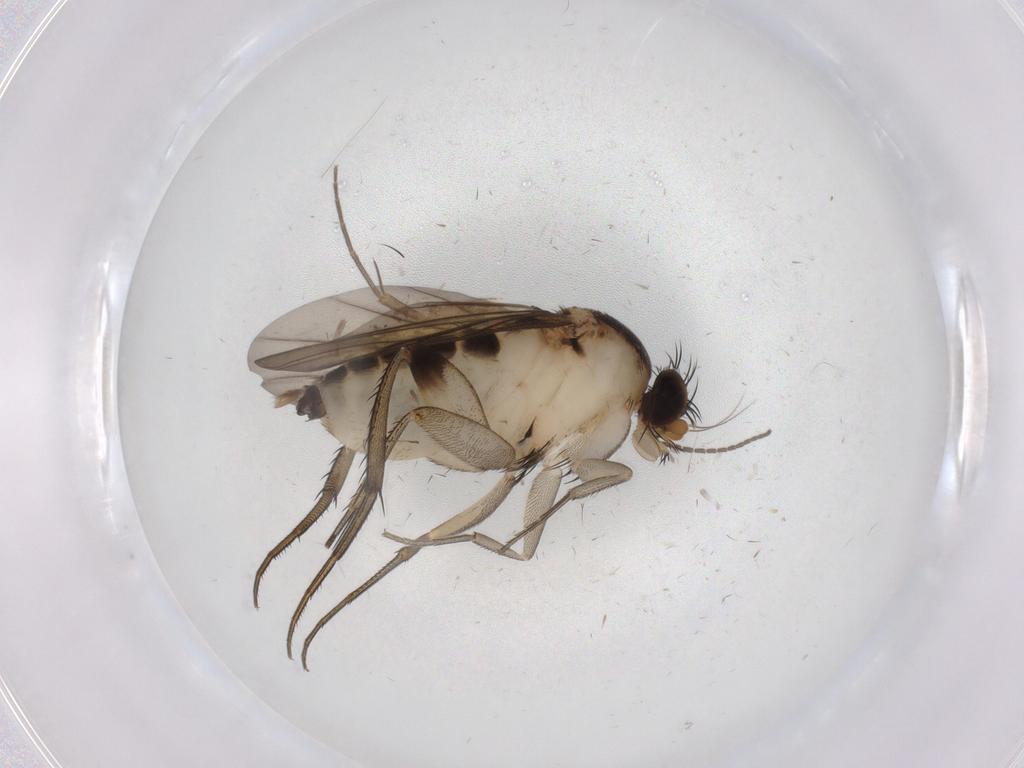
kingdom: Animalia
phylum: Arthropoda
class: Insecta
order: Diptera
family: Phoridae
